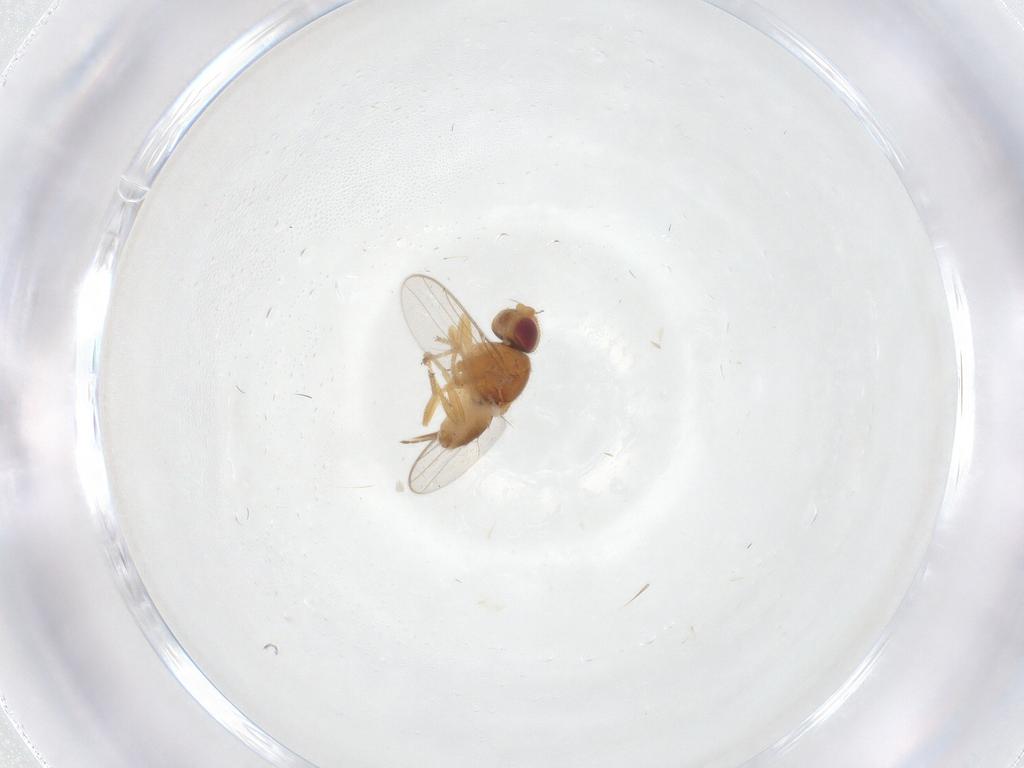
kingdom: Animalia
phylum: Arthropoda
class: Insecta
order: Diptera
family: Chloropidae
